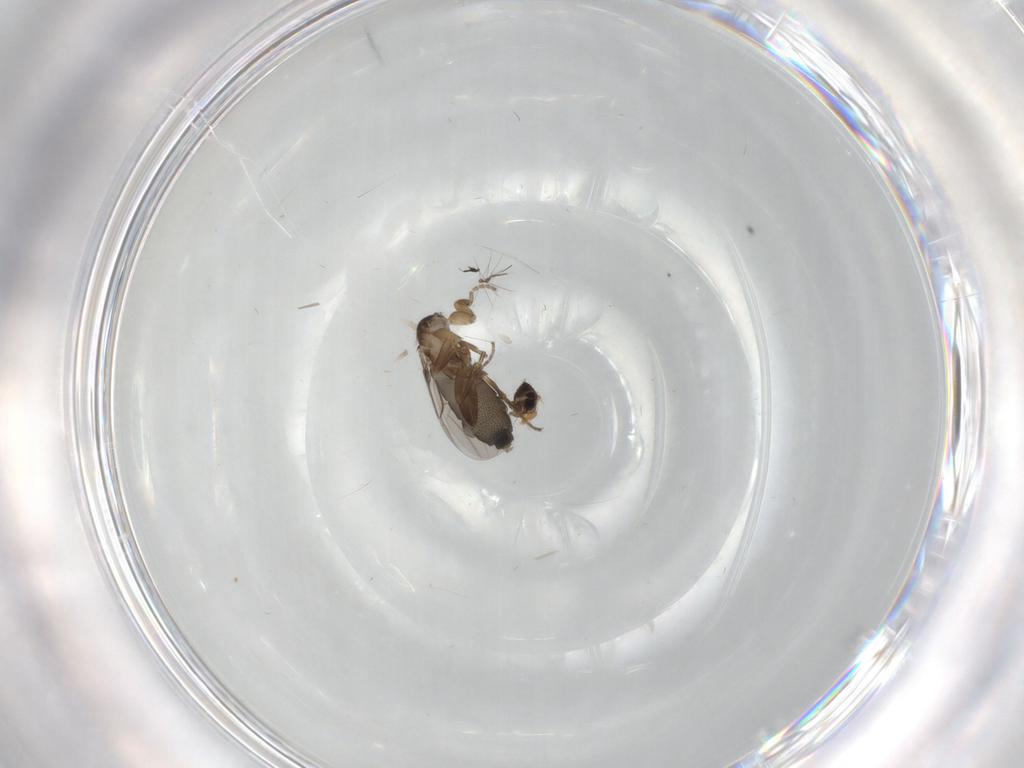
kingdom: Animalia
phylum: Arthropoda
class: Insecta
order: Diptera
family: Phoridae
